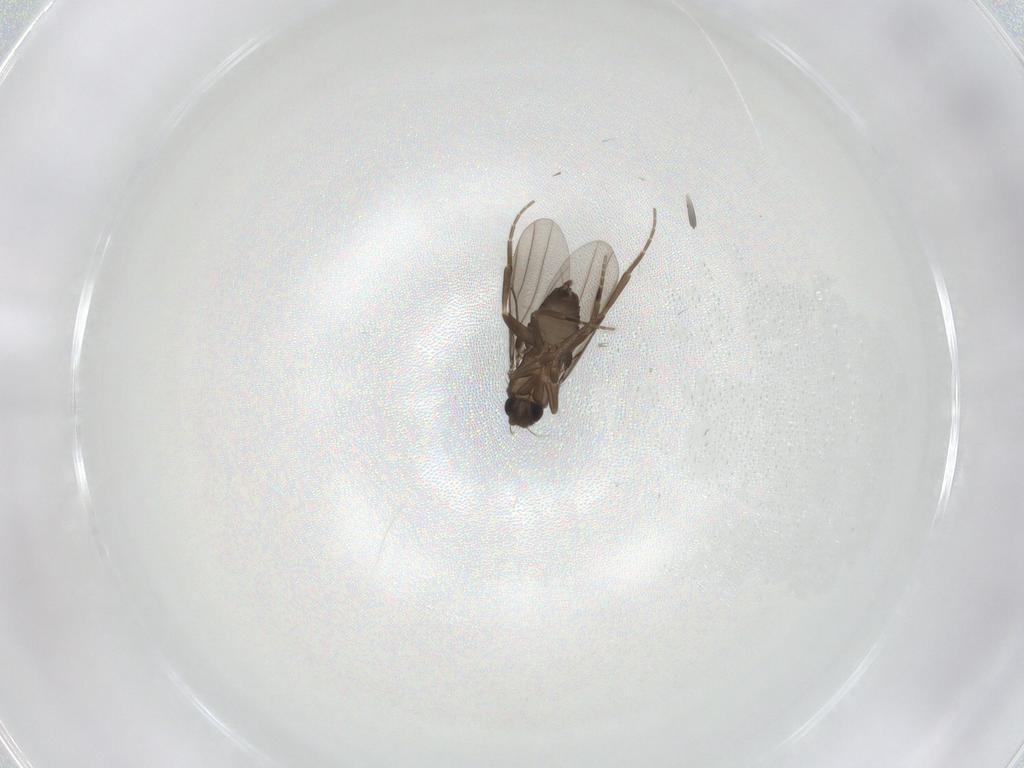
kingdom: Animalia
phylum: Arthropoda
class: Insecta
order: Diptera
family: Phoridae
